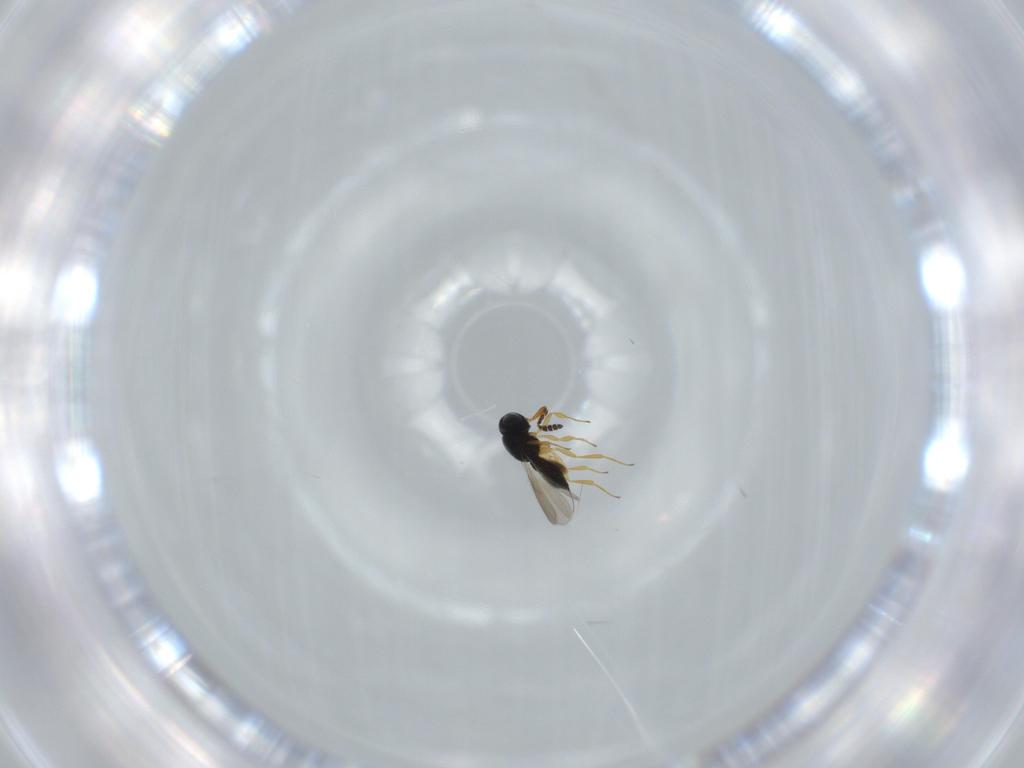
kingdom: Animalia
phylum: Arthropoda
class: Insecta
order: Hymenoptera
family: Scelionidae
